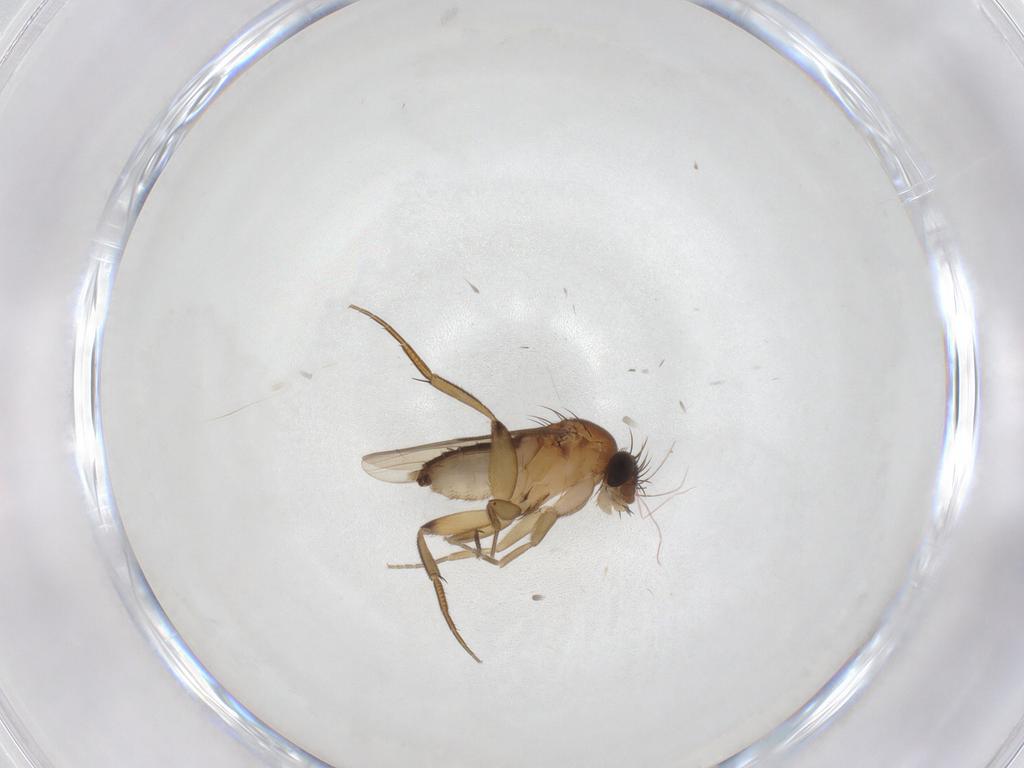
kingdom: Animalia
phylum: Arthropoda
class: Insecta
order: Diptera
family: Phoridae
